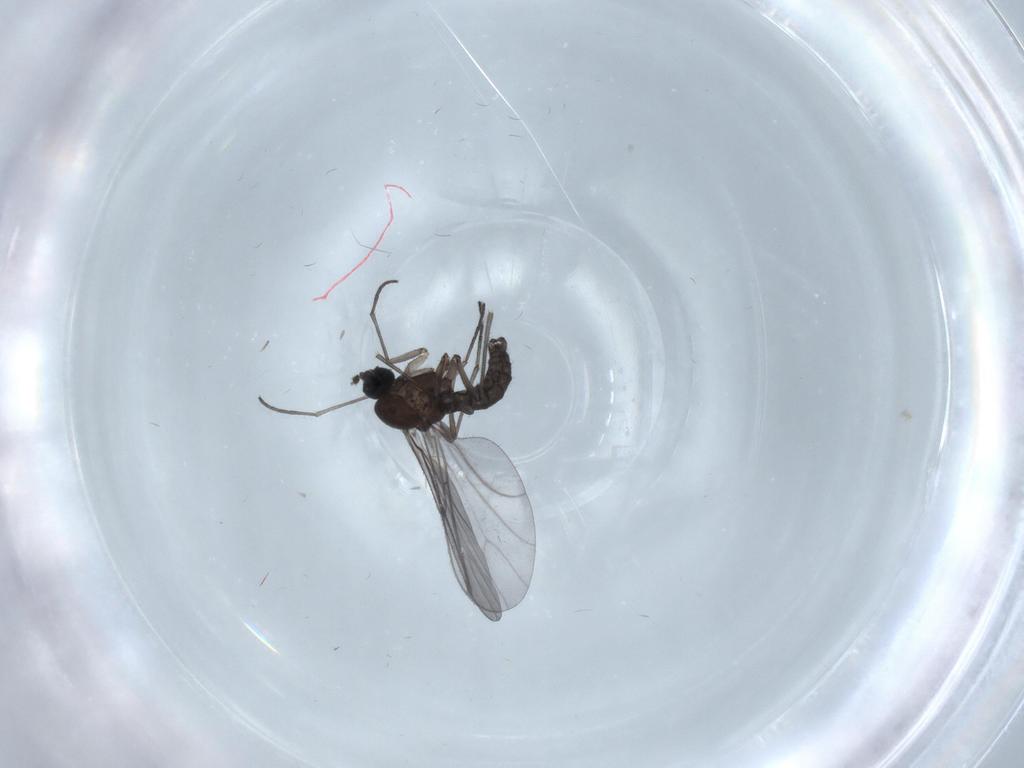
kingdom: Animalia
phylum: Arthropoda
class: Insecta
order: Diptera
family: Sciaridae
